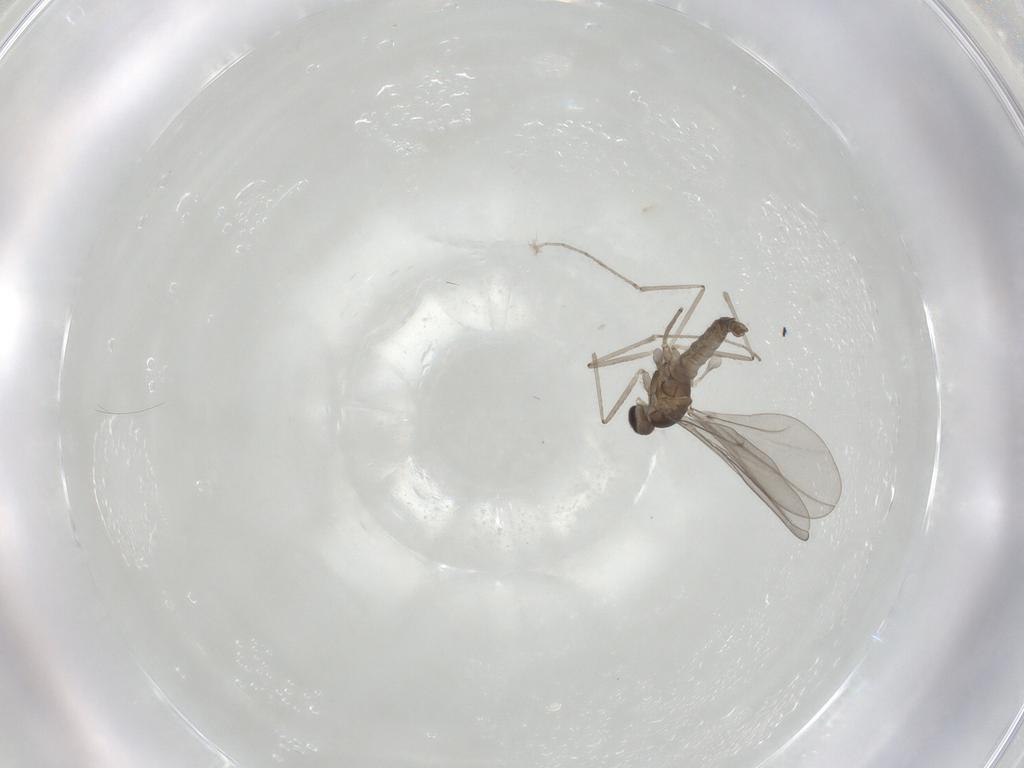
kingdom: Animalia
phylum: Arthropoda
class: Insecta
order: Diptera
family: Cecidomyiidae
